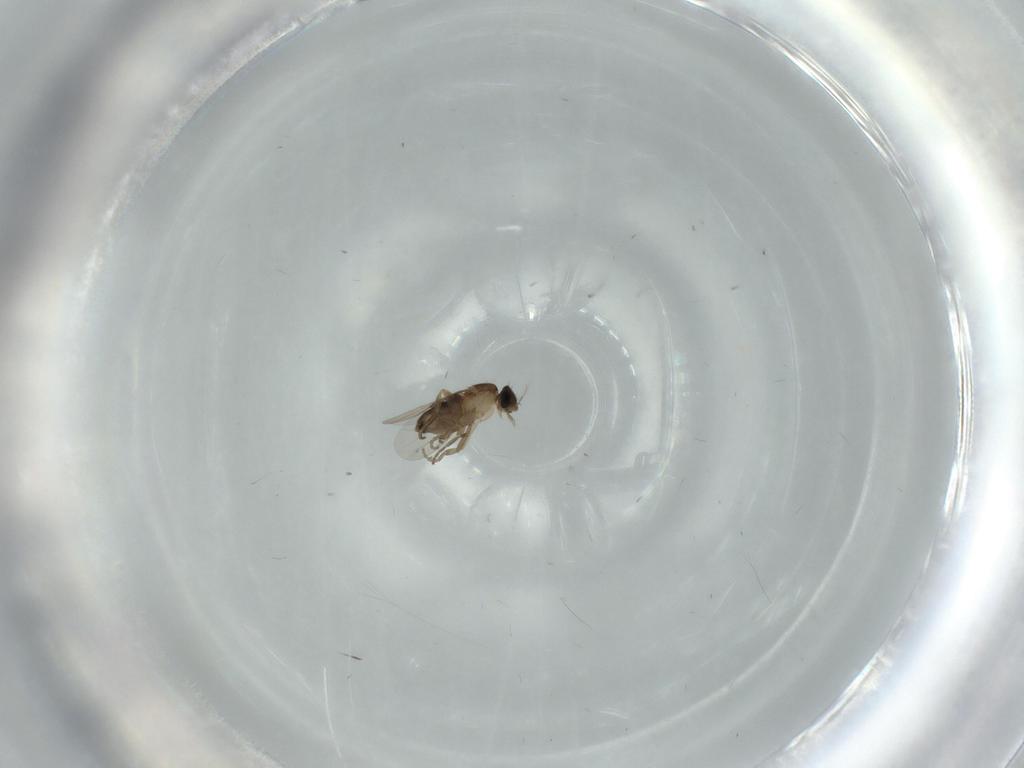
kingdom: Animalia
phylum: Arthropoda
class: Insecta
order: Diptera
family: Phoridae
